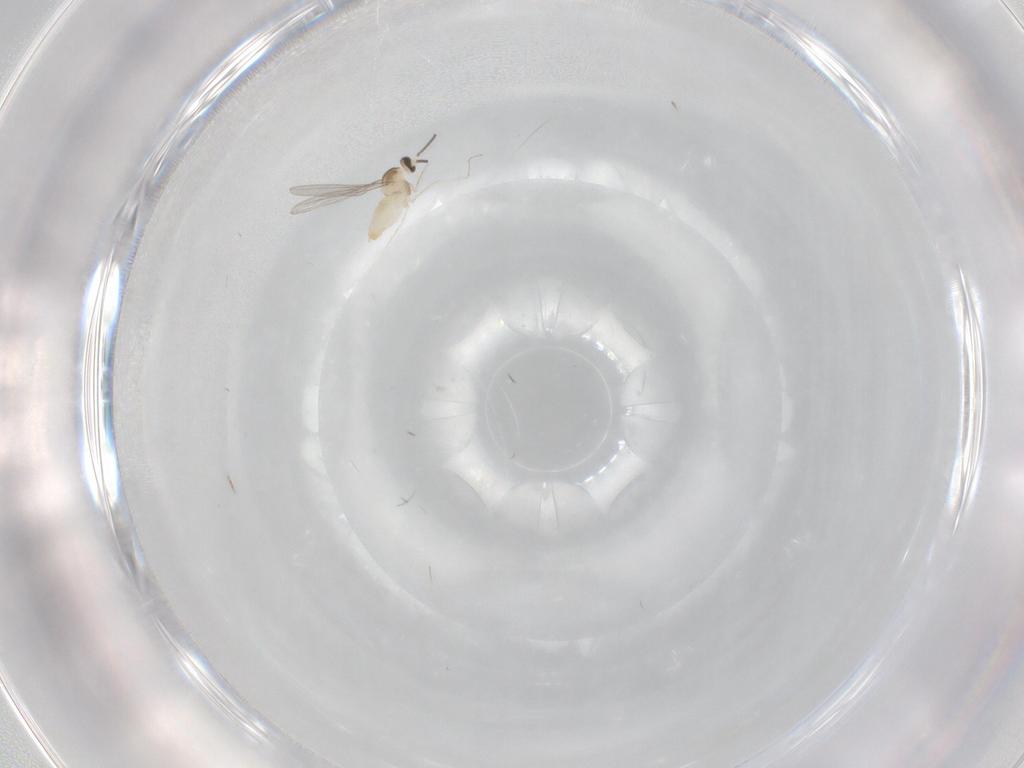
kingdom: Animalia
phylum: Arthropoda
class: Insecta
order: Diptera
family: Cecidomyiidae
